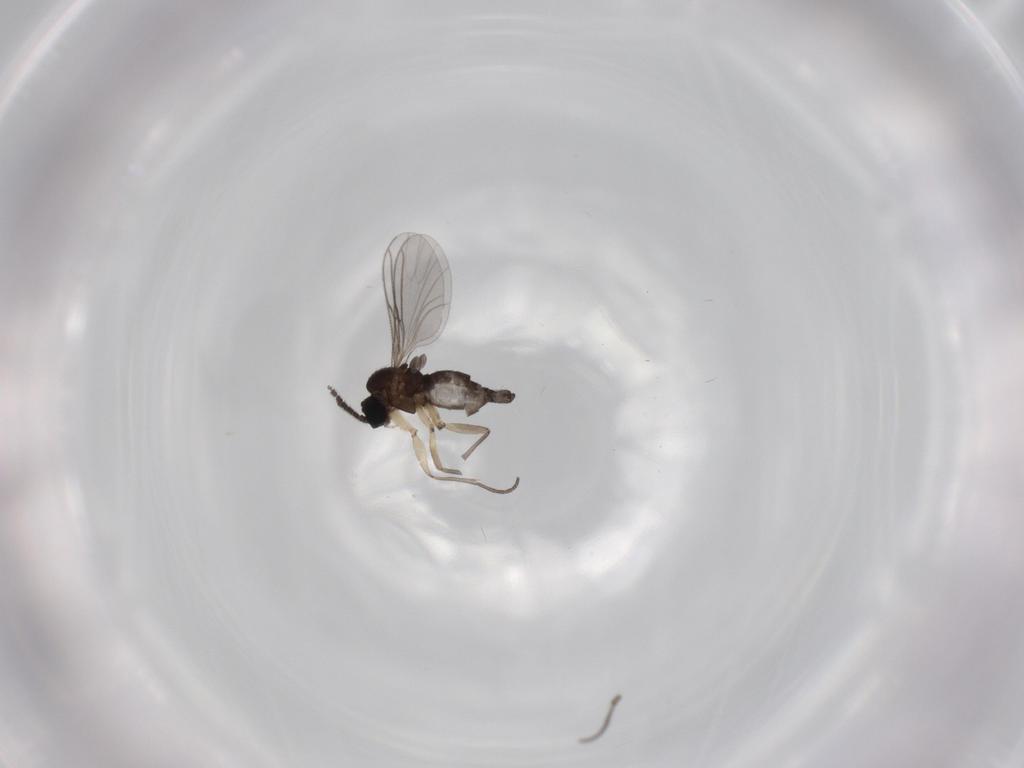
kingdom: Animalia
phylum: Arthropoda
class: Insecta
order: Diptera
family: Sciaridae
